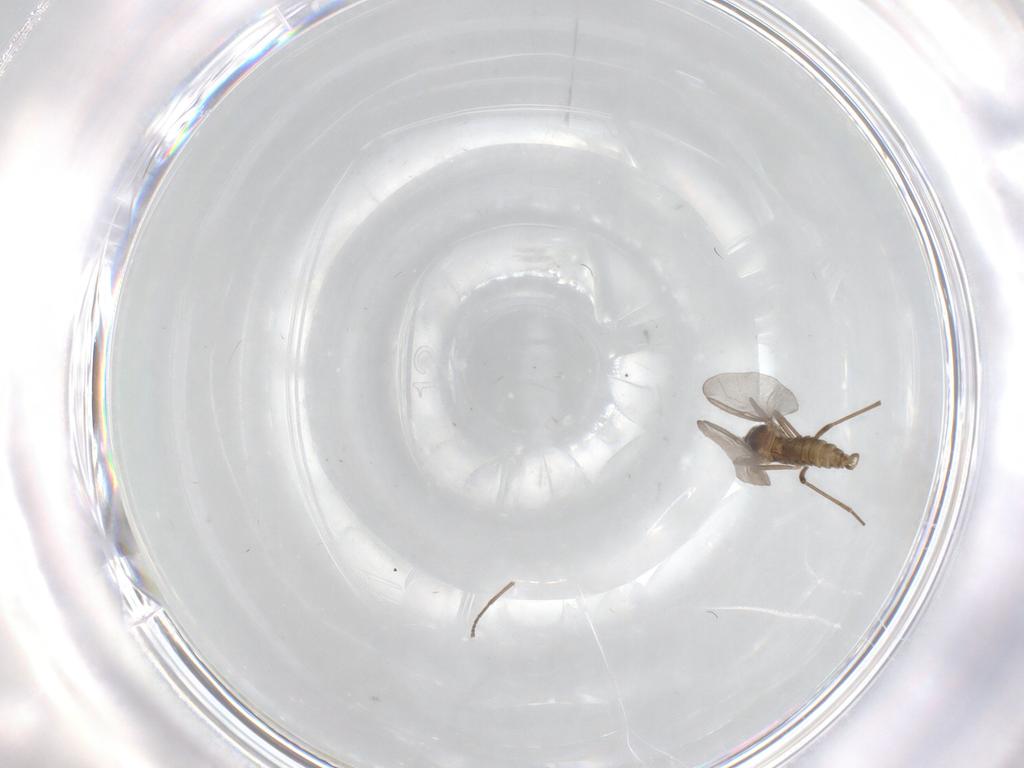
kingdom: Animalia
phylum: Arthropoda
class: Insecta
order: Diptera
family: Cecidomyiidae
